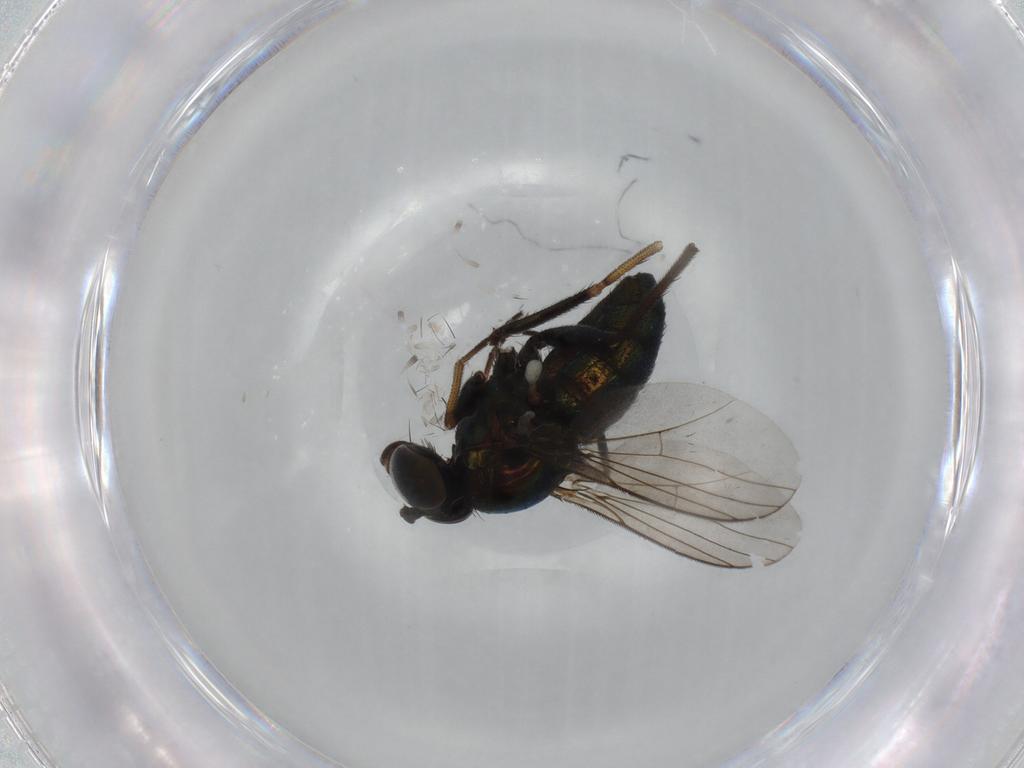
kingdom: Animalia
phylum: Arthropoda
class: Insecta
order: Diptera
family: Dolichopodidae
